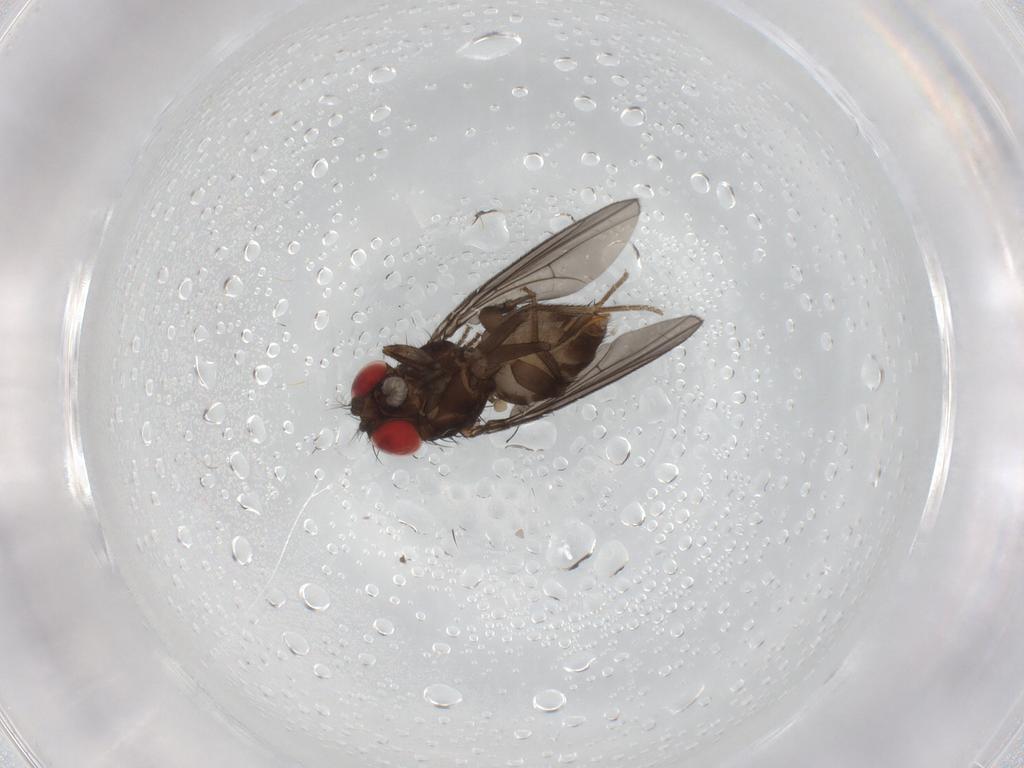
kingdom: Animalia
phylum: Arthropoda
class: Insecta
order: Diptera
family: Drosophilidae
